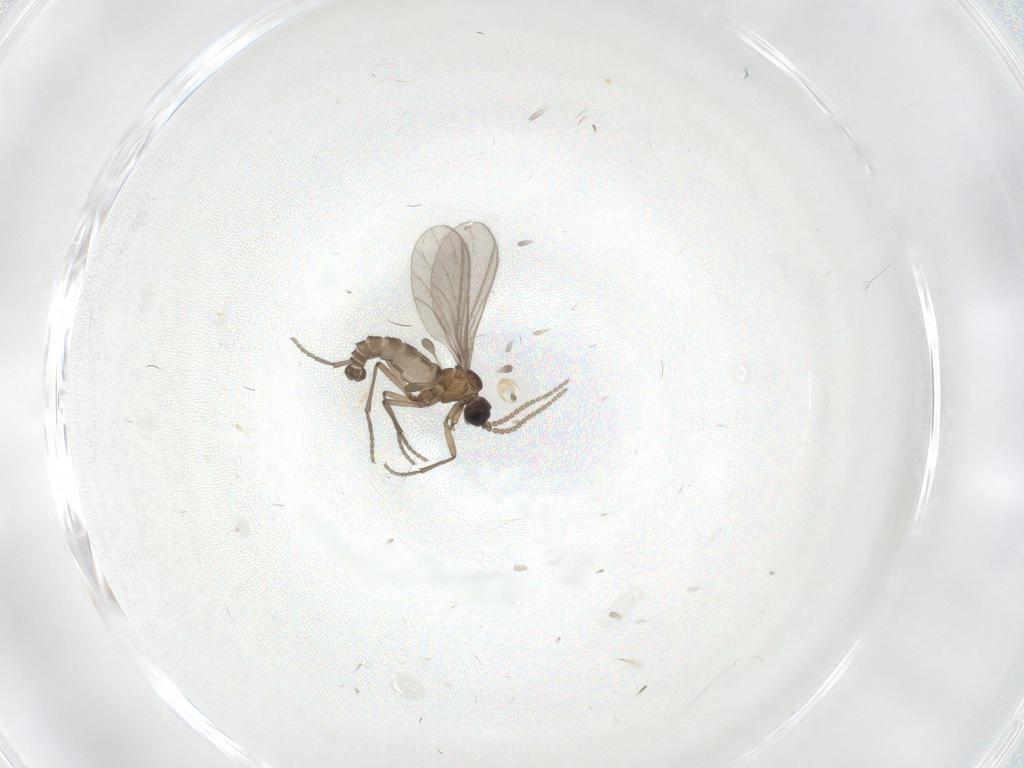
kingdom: Animalia
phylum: Arthropoda
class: Insecta
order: Diptera
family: Sciaridae
